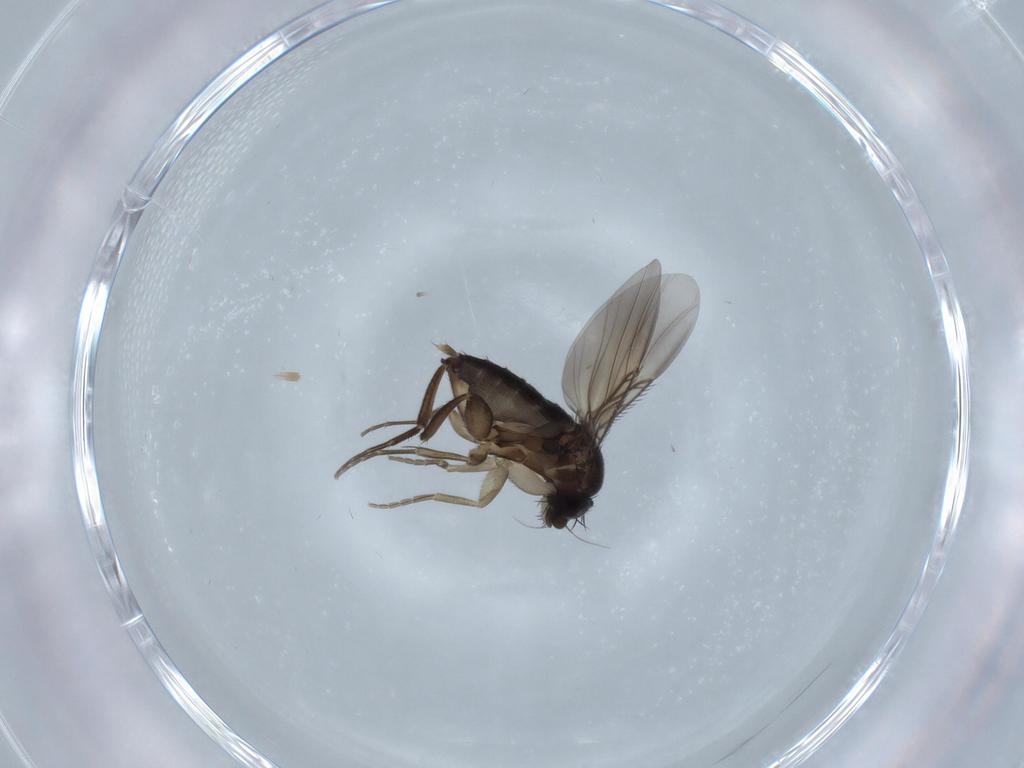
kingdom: Animalia
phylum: Arthropoda
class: Insecta
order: Diptera
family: Phoridae
